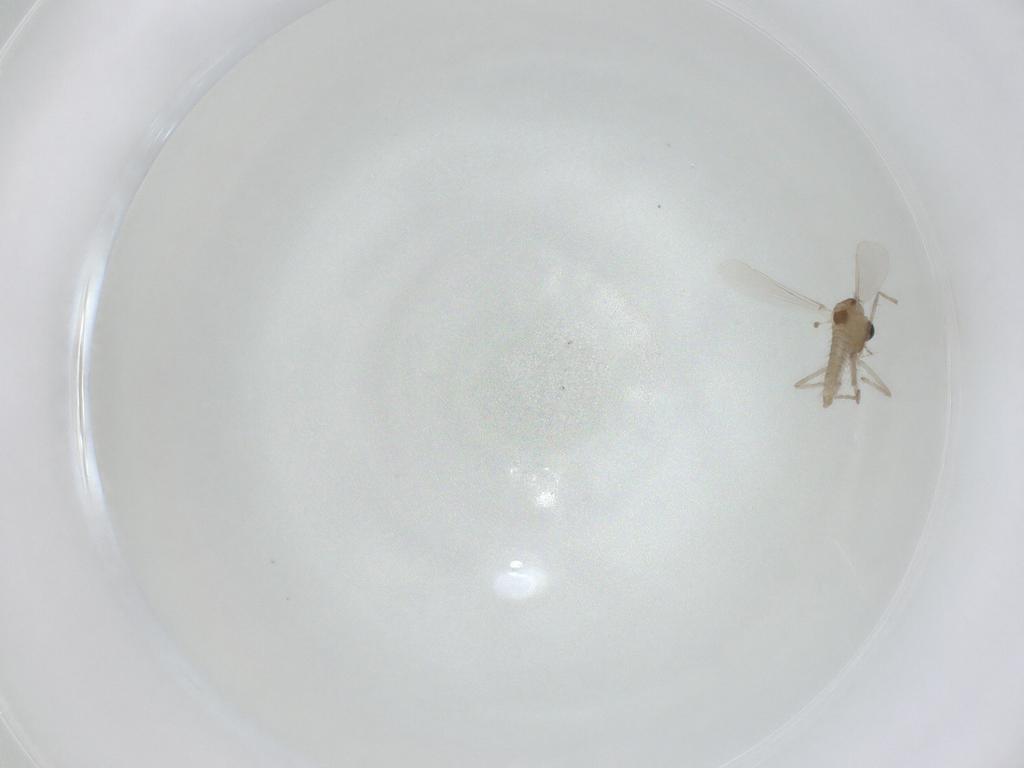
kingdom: Animalia
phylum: Arthropoda
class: Insecta
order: Diptera
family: Chironomidae
